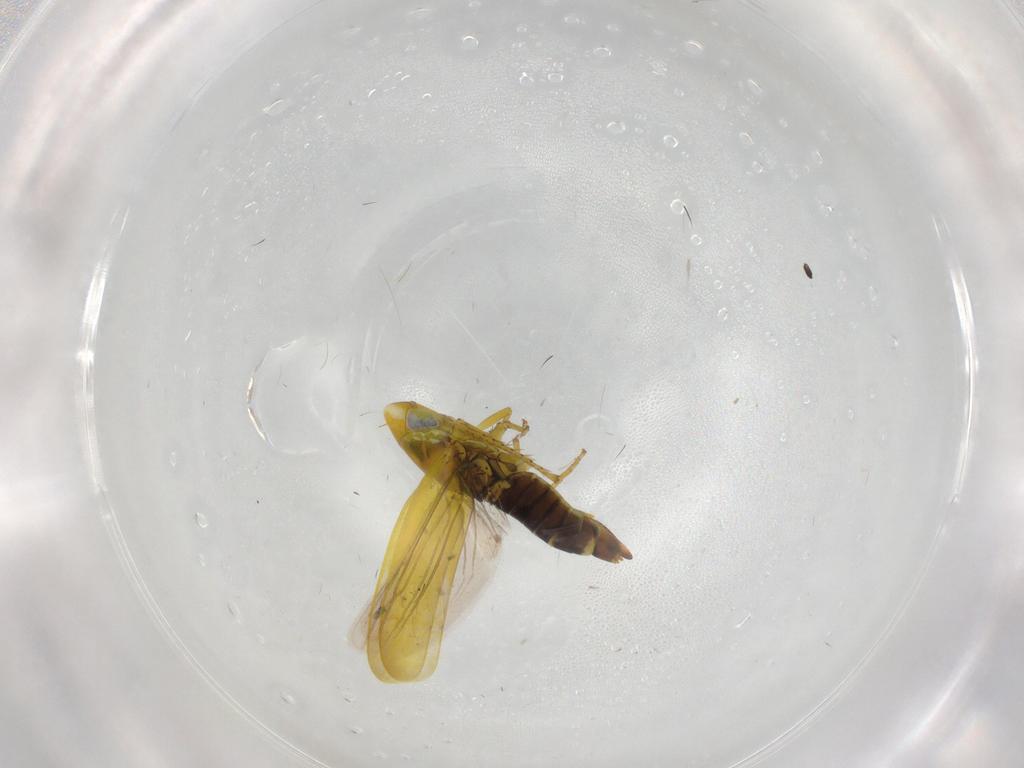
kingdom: Animalia
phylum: Arthropoda
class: Insecta
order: Hemiptera
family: Cicadellidae
